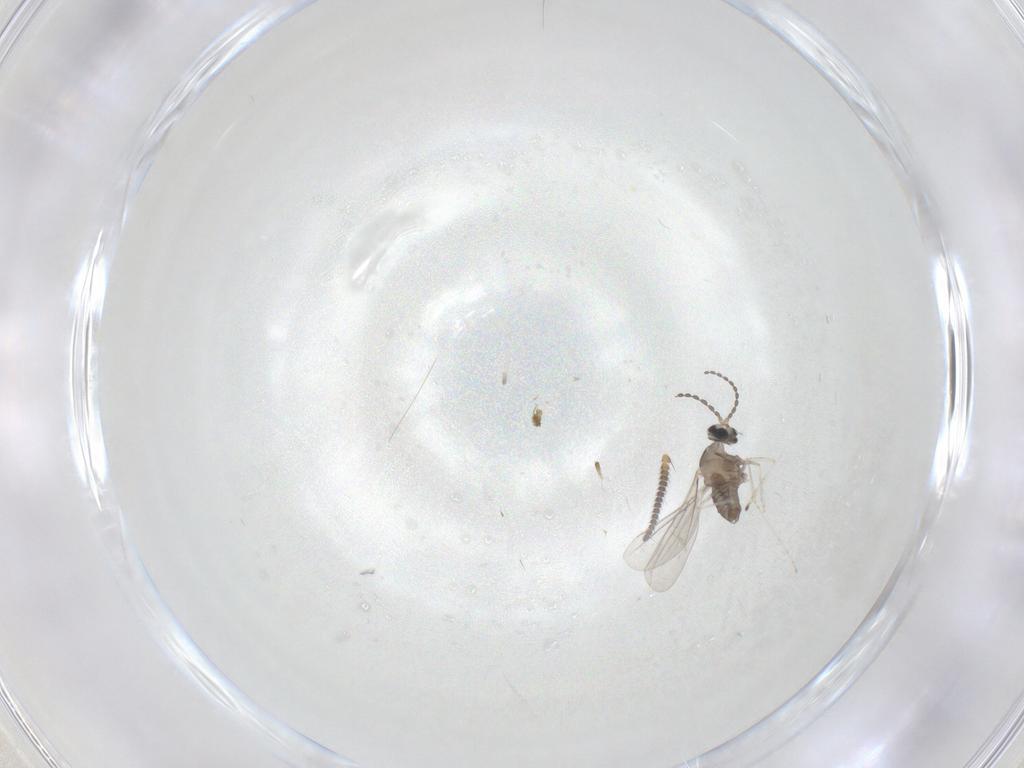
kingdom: Animalia
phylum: Arthropoda
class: Insecta
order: Diptera
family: Cecidomyiidae
